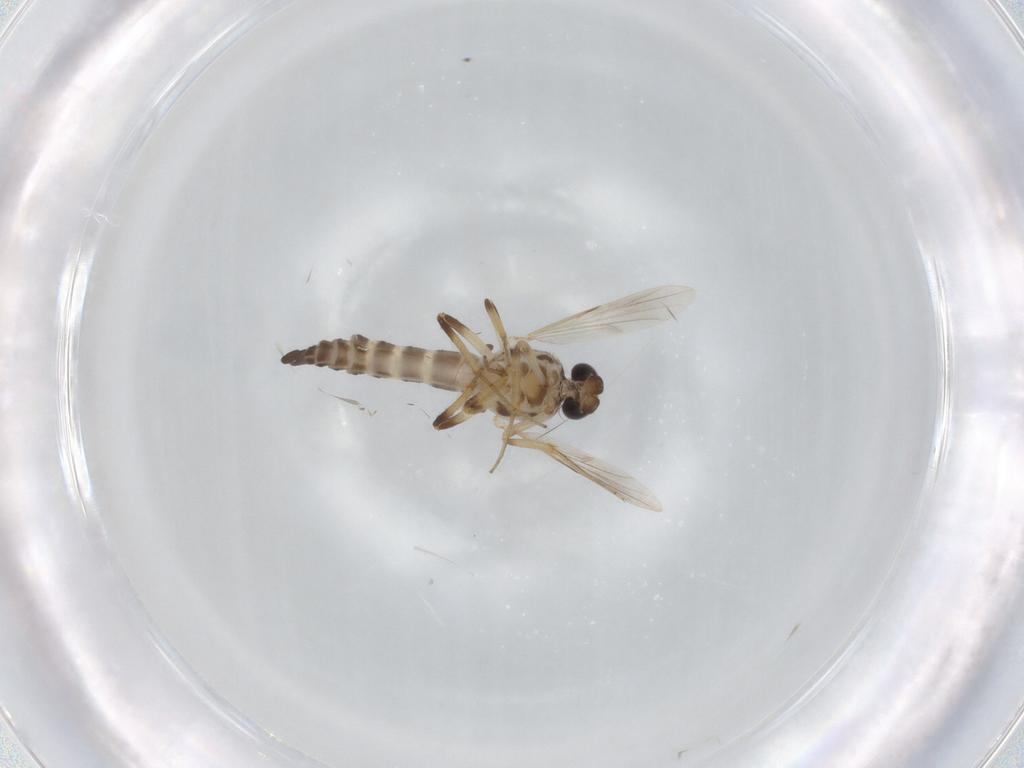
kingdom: Animalia
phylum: Arthropoda
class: Insecta
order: Diptera
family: Ceratopogonidae
